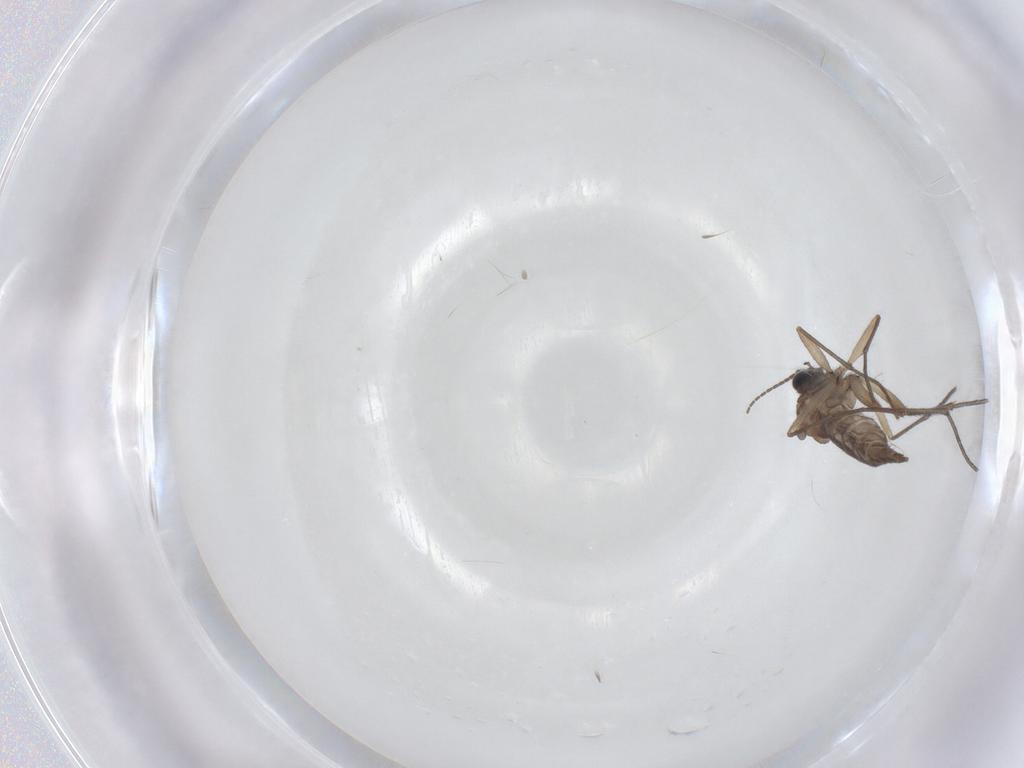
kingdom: Animalia
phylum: Arthropoda
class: Insecta
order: Diptera
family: Sciaridae
